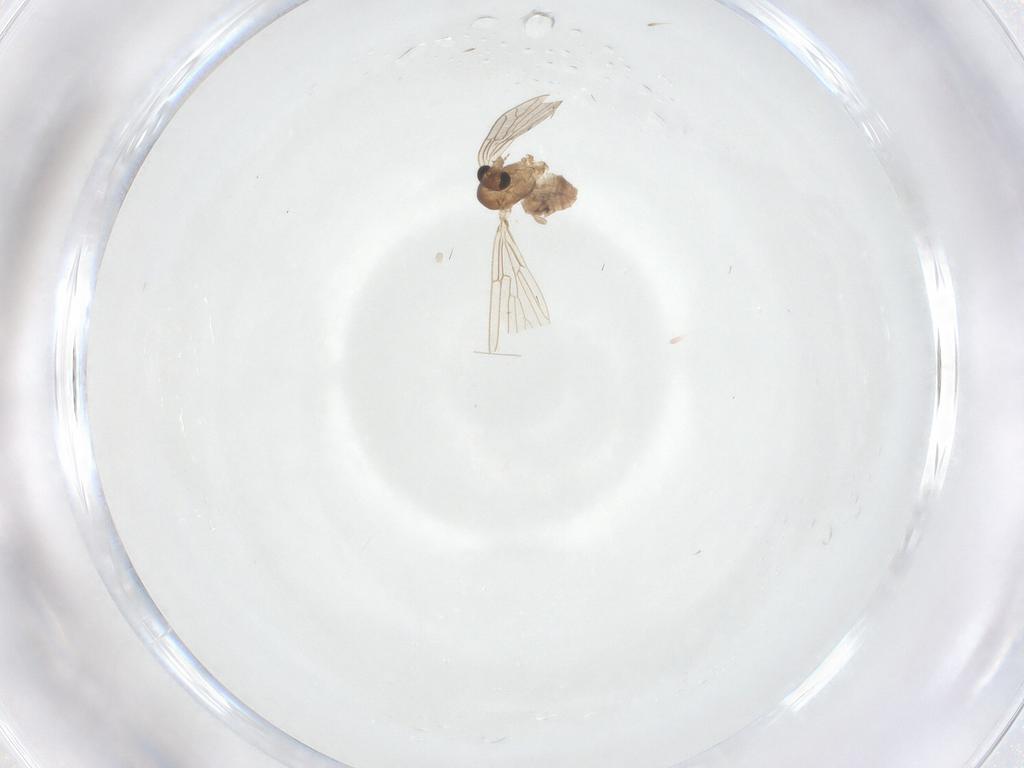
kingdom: Animalia
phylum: Arthropoda
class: Insecta
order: Diptera
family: Psychodidae
